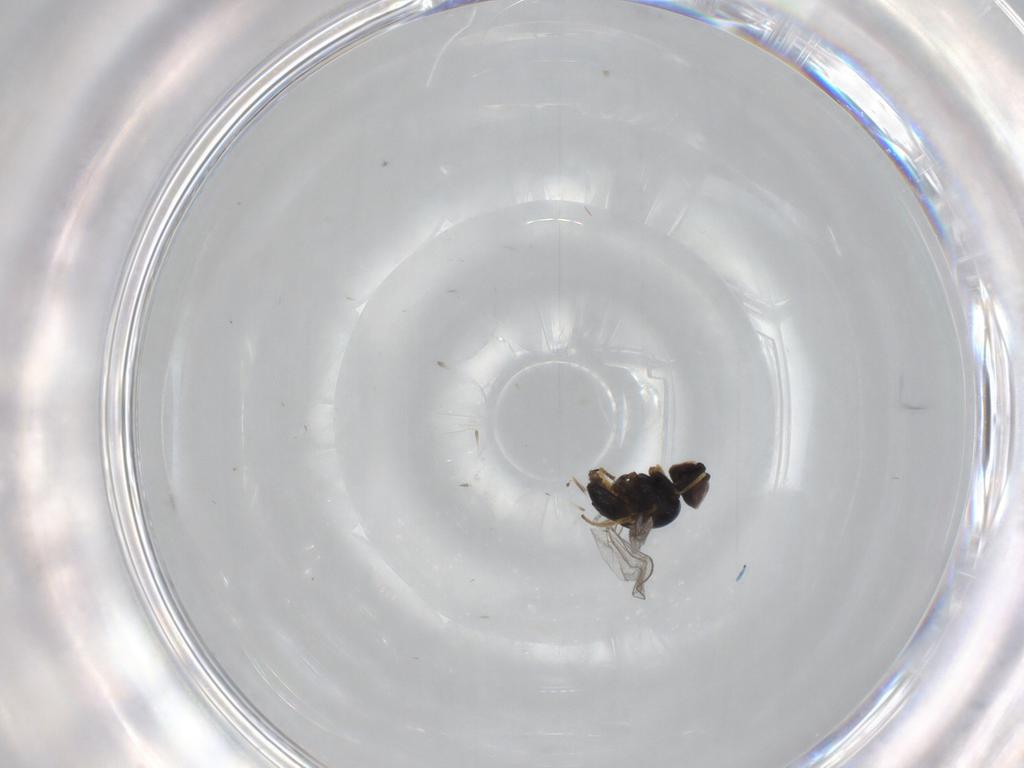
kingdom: Animalia
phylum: Arthropoda
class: Insecta
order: Diptera
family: Chloropidae
